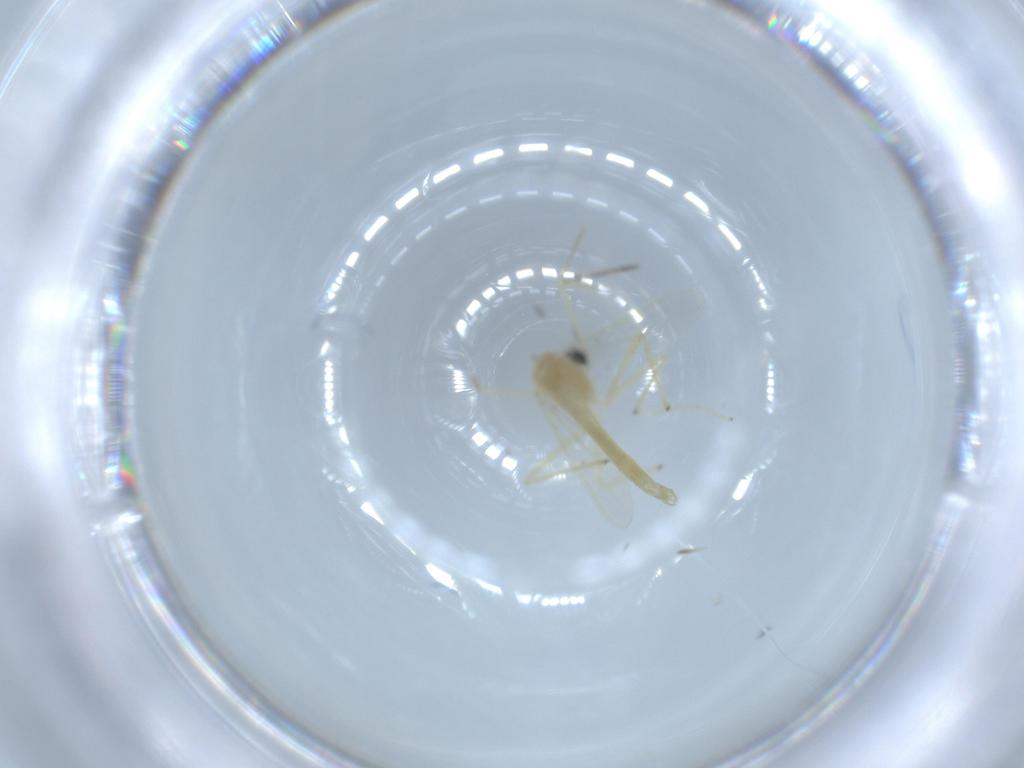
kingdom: Animalia
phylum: Arthropoda
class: Insecta
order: Diptera
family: Chironomidae
